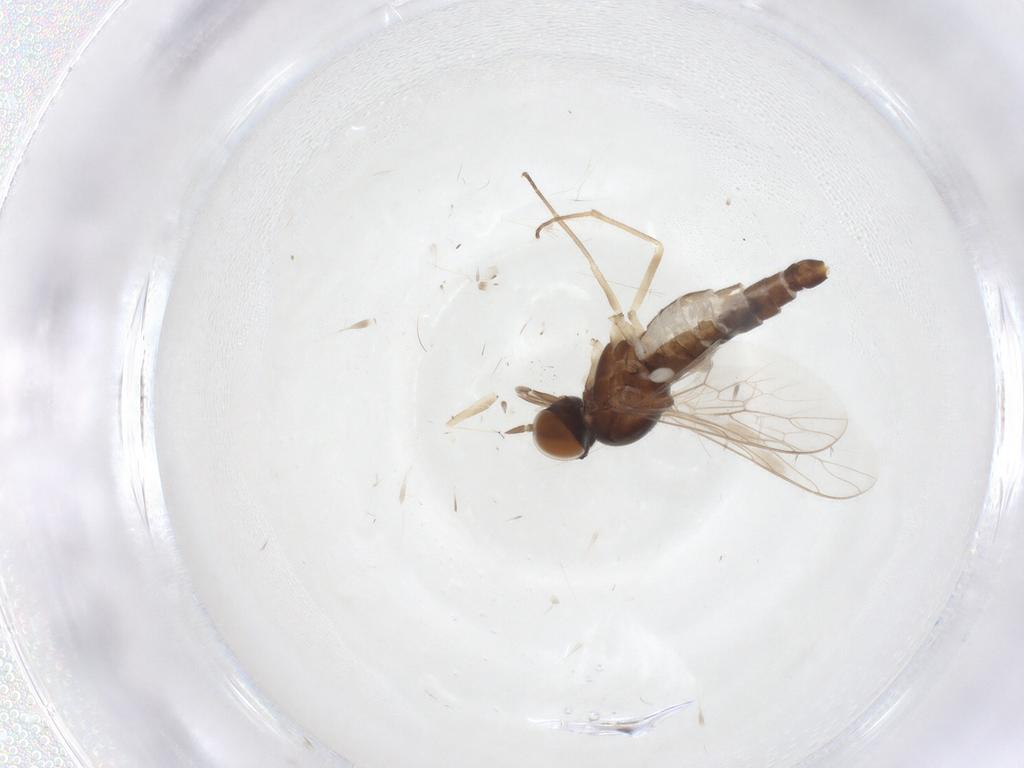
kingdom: Animalia
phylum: Arthropoda
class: Insecta
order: Diptera
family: Scenopinidae
